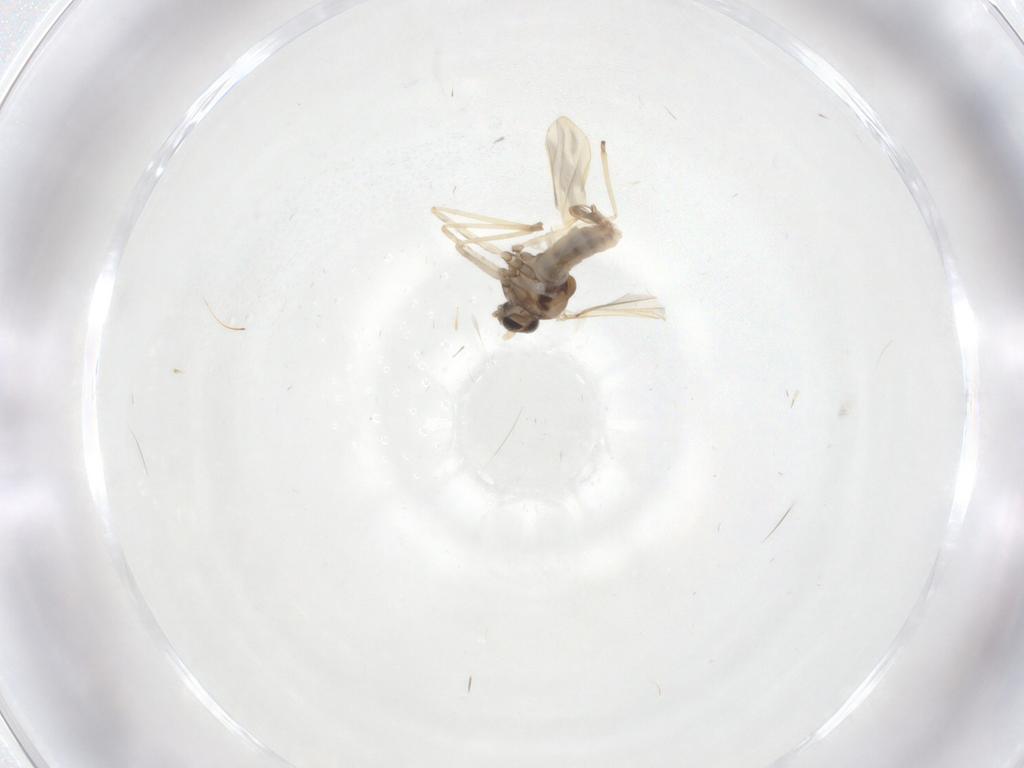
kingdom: Animalia
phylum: Arthropoda
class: Insecta
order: Diptera
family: Cecidomyiidae
